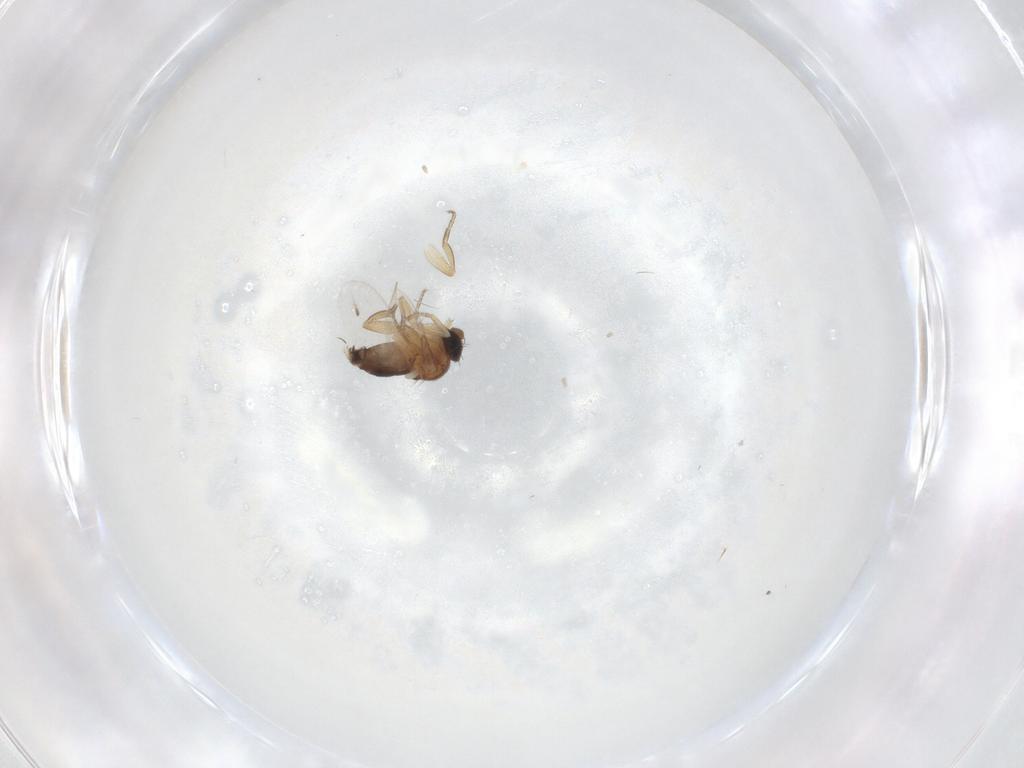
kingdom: Animalia
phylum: Arthropoda
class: Insecta
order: Diptera
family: Phoridae
